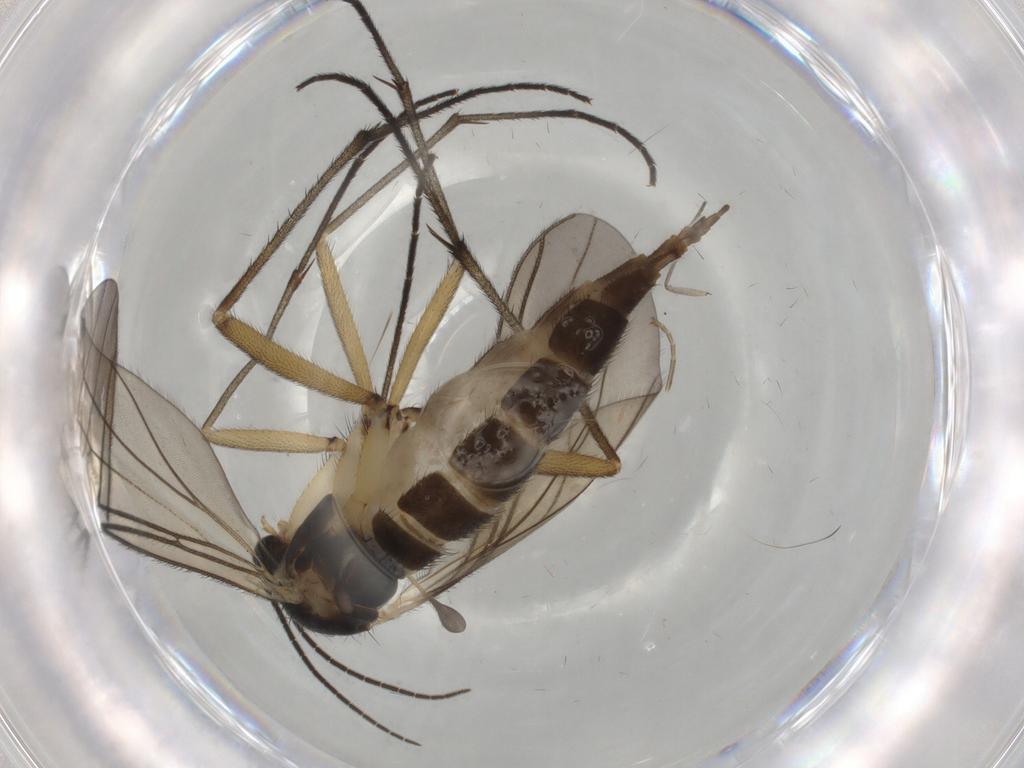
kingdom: Animalia
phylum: Arthropoda
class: Insecta
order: Diptera
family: Sciaridae
